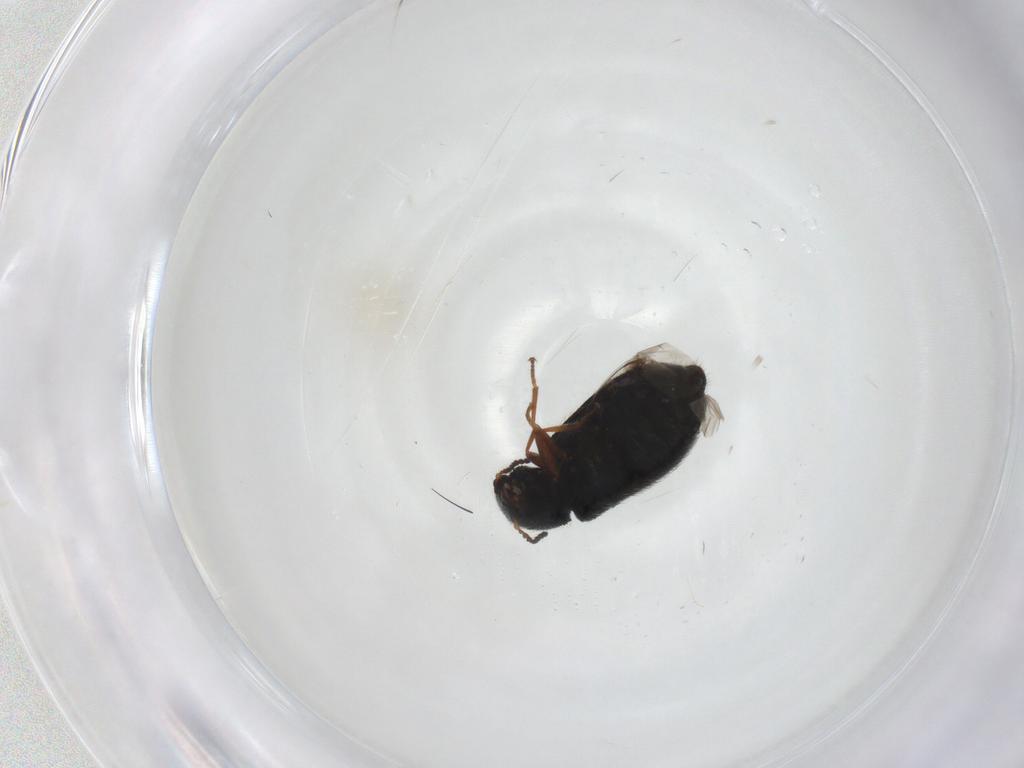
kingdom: Animalia
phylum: Arthropoda
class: Insecta
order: Coleoptera
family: Melyridae
